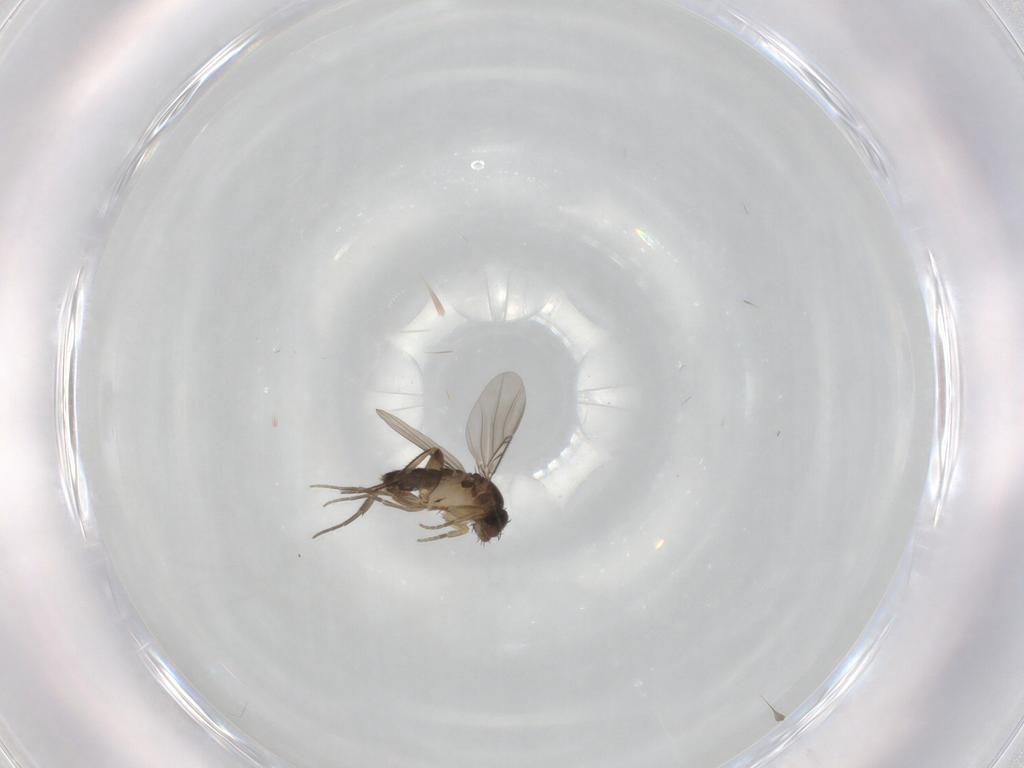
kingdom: Animalia
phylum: Arthropoda
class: Insecta
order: Diptera
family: Phoridae
